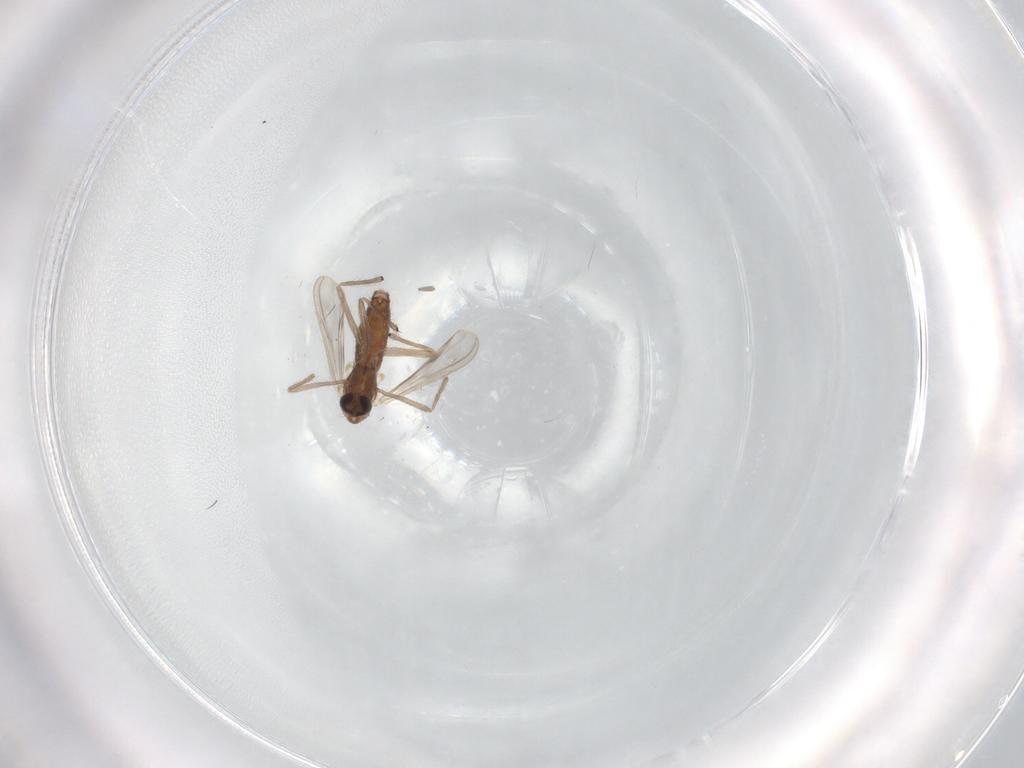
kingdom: Animalia
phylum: Arthropoda
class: Insecta
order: Diptera
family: Chironomidae
